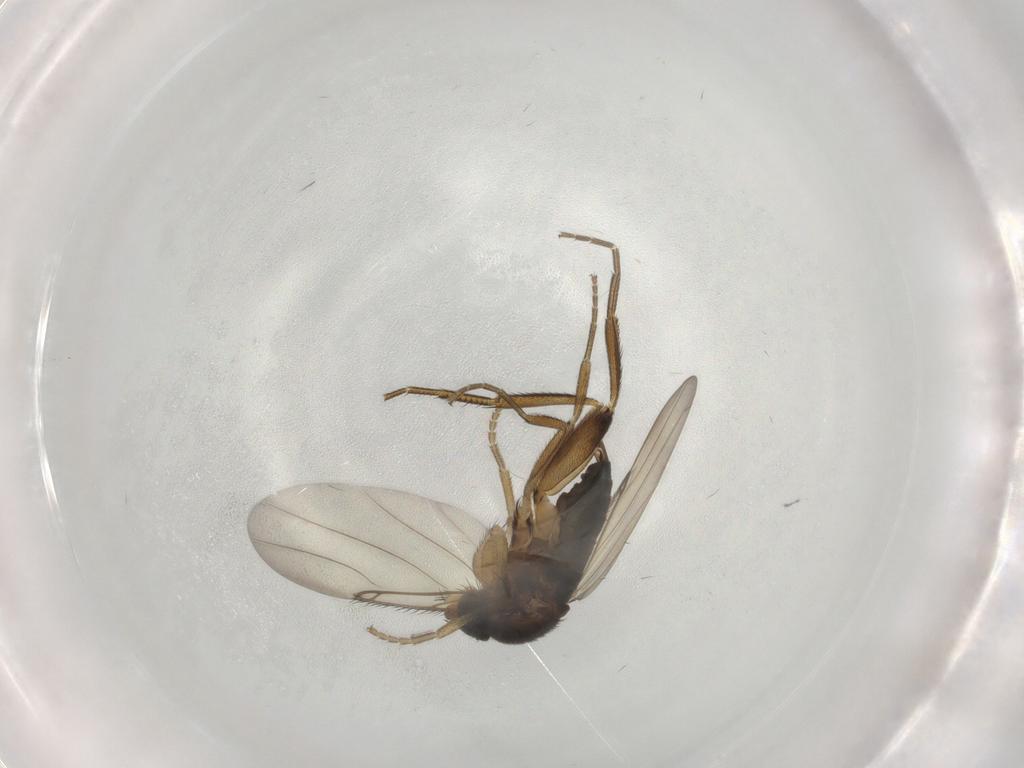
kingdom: Animalia
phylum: Arthropoda
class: Insecta
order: Diptera
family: Phoridae
